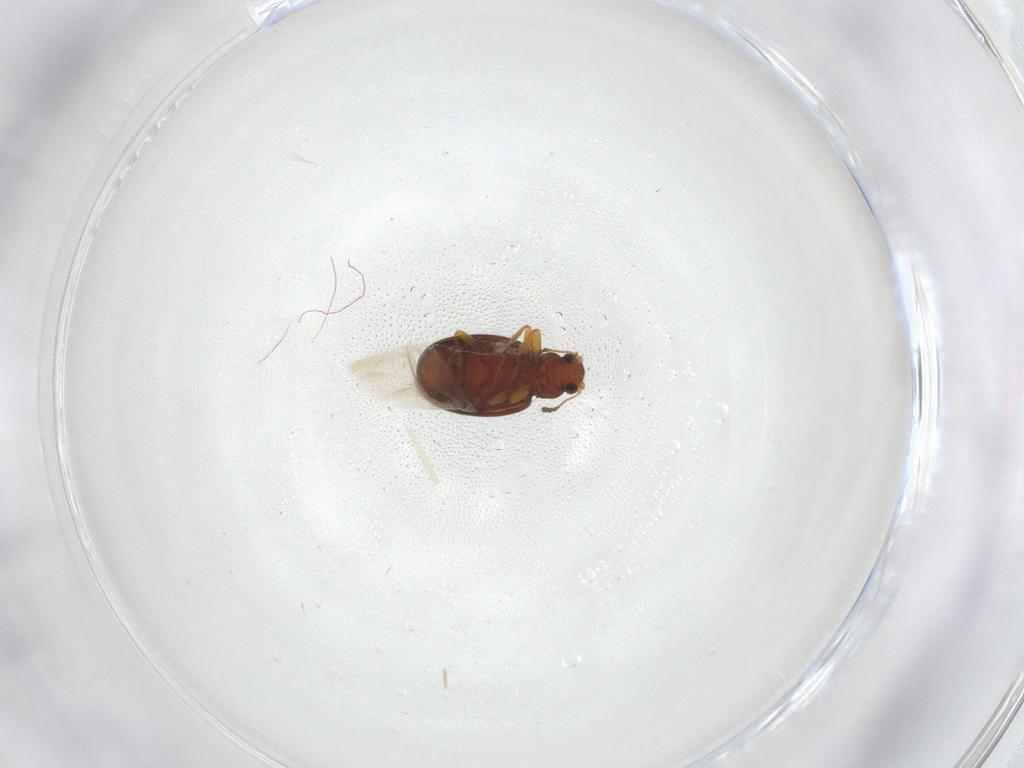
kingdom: Animalia
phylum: Arthropoda
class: Insecta
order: Coleoptera
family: Latridiidae
